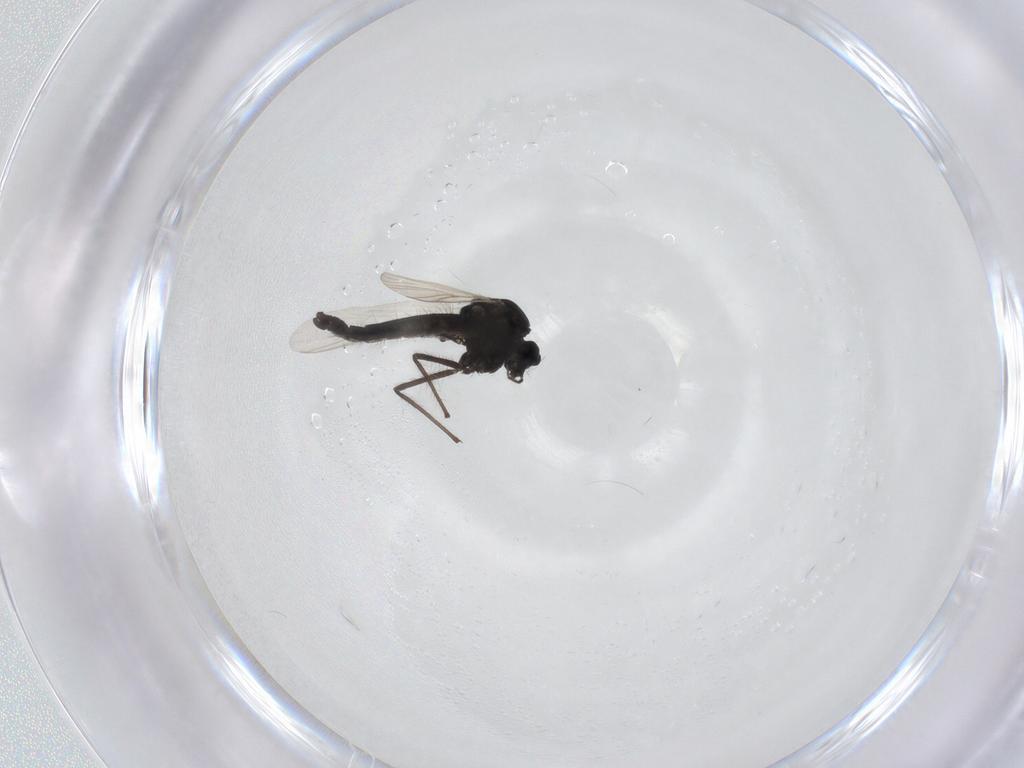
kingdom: Animalia
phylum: Arthropoda
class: Insecta
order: Diptera
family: Chironomidae
